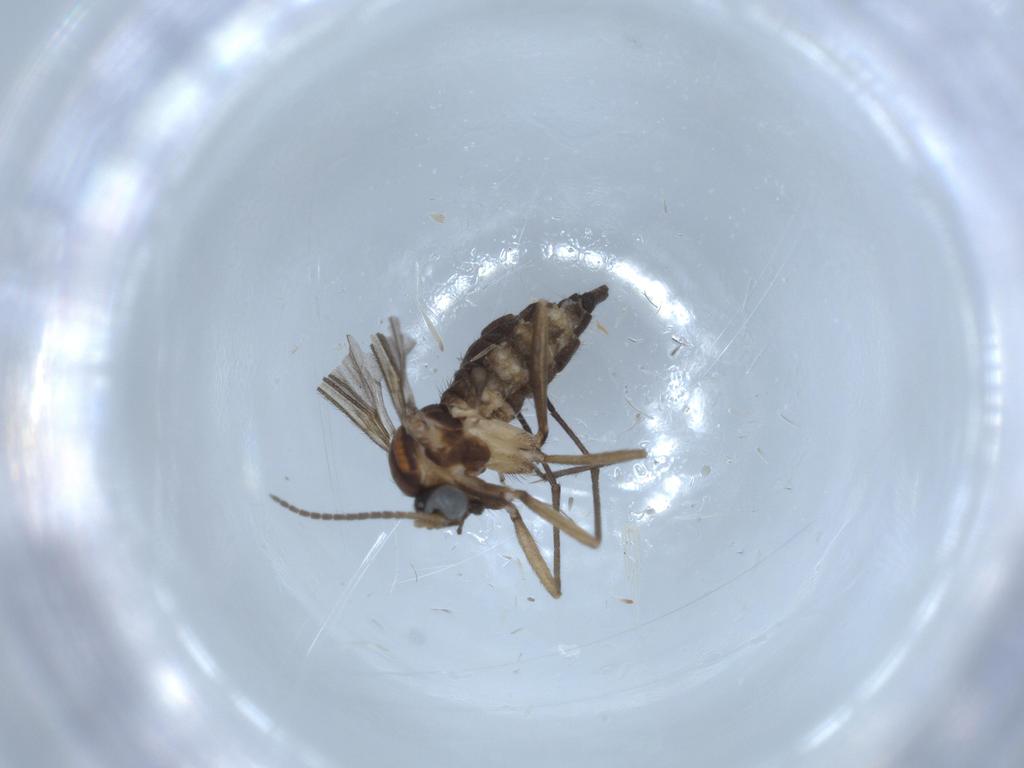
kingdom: Animalia
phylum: Arthropoda
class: Insecta
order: Diptera
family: Sciaridae
